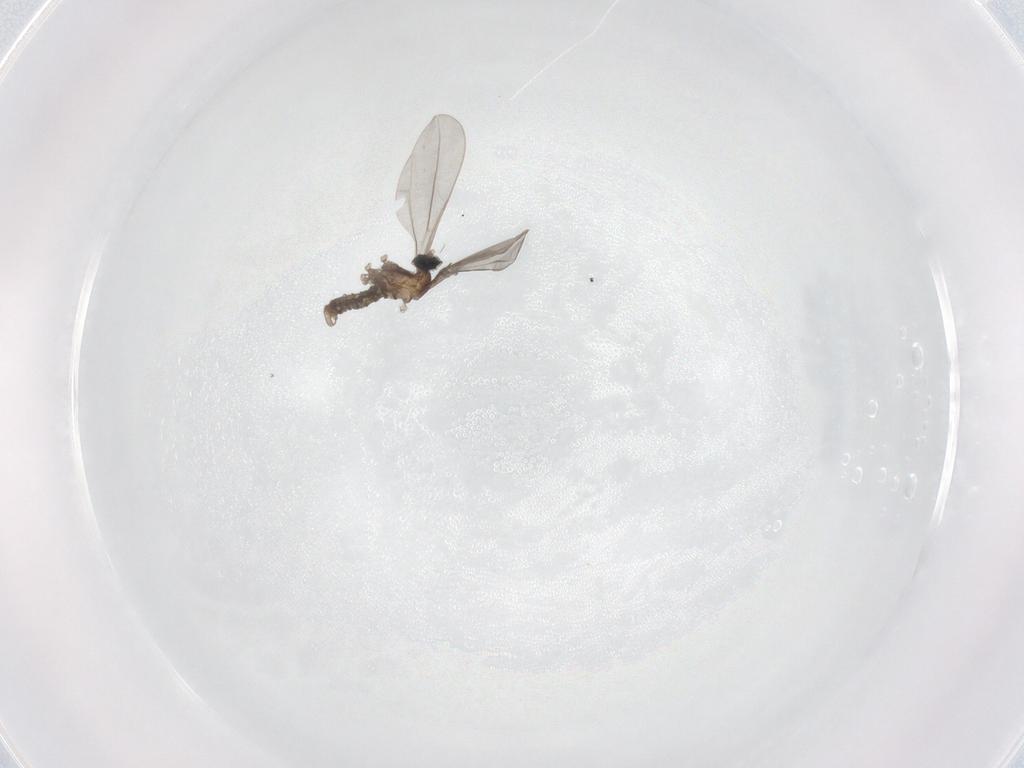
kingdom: Animalia
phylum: Arthropoda
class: Insecta
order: Diptera
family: Cecidomyiidae
